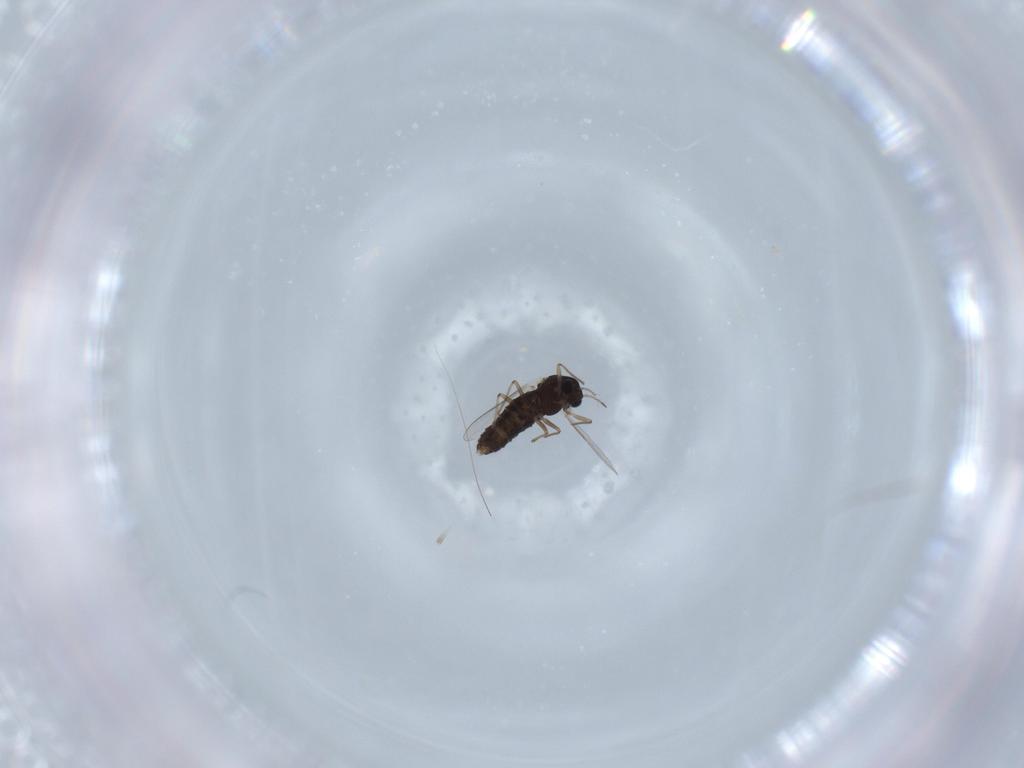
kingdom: Animalia
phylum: Arthropoda
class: Insecta
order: Diptera
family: Chironomidae
